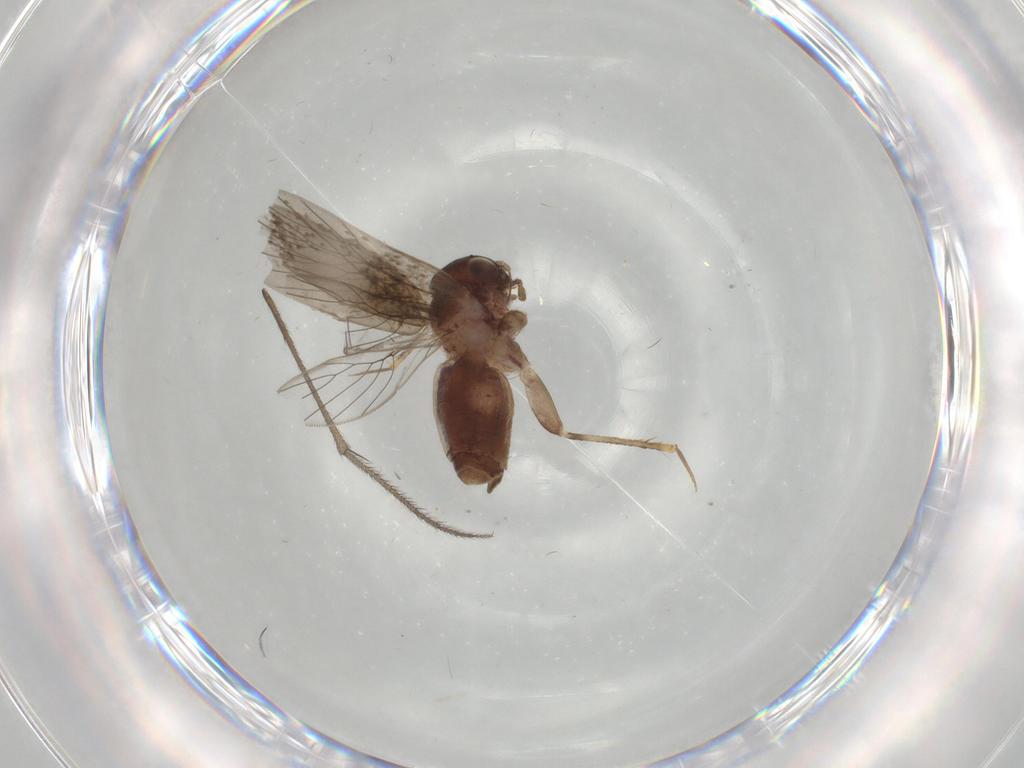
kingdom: Animalia
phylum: Arthropoda
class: Insecta
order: Psocodea
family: Lepidopsocidae
